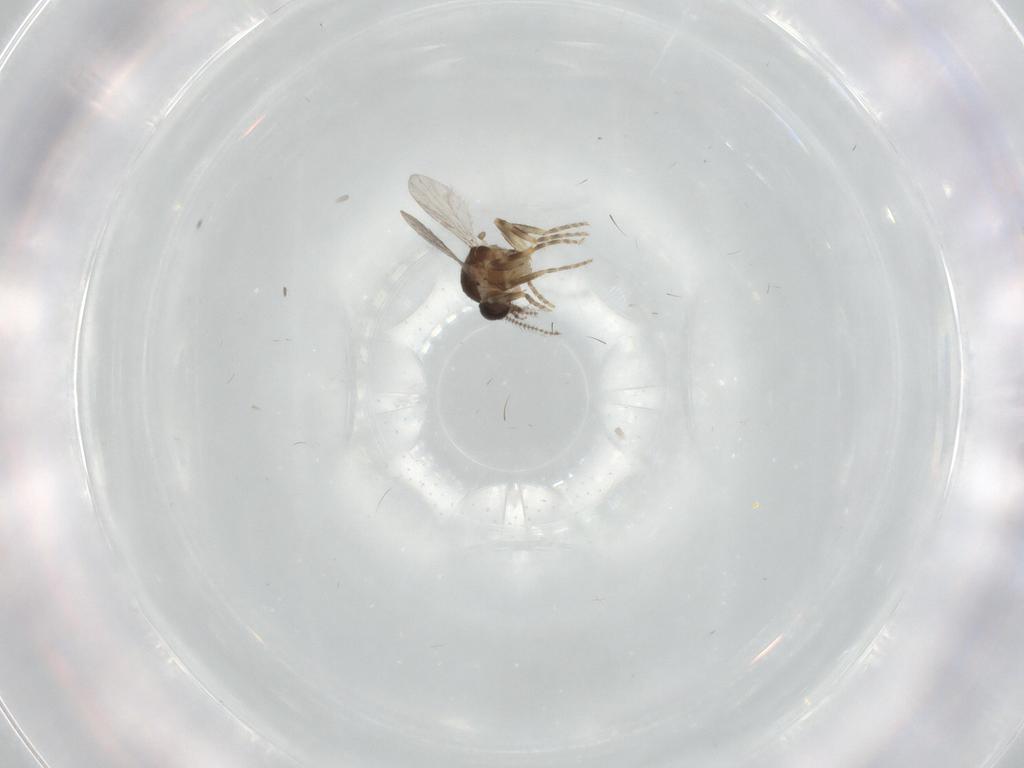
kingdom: Animalia
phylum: Arthropoda
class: Insecta
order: Diptera
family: Ceratopogonidae
